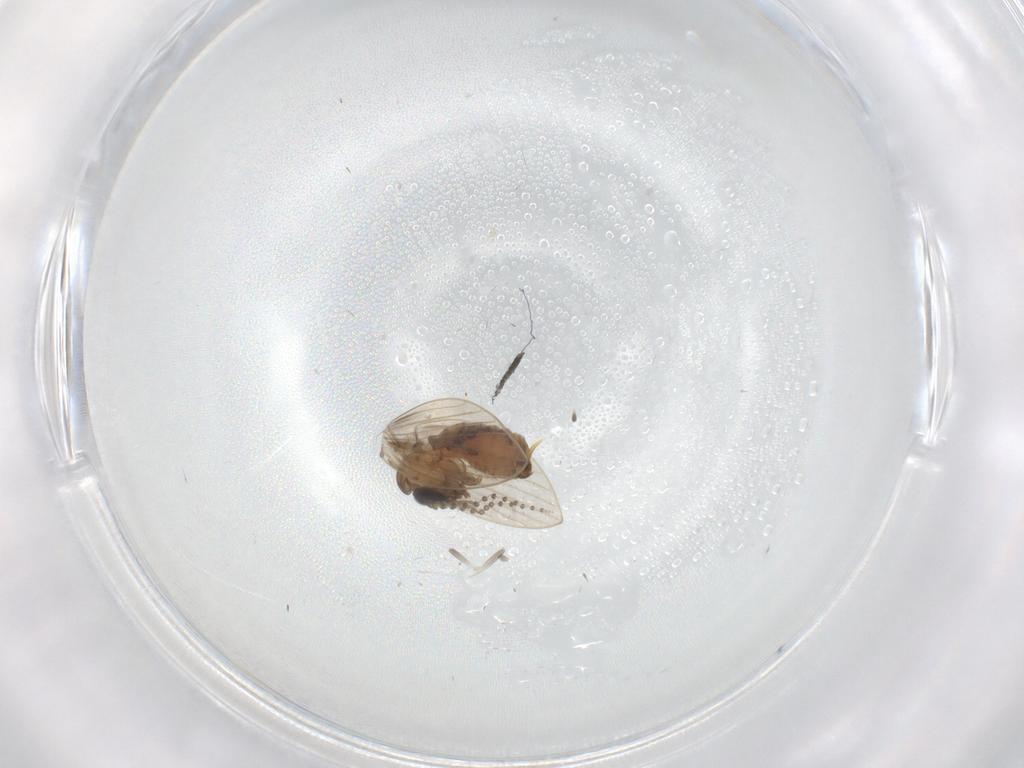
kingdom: Animalia
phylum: Arthropoda
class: Insecta
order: Diptera
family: Psychodidae
